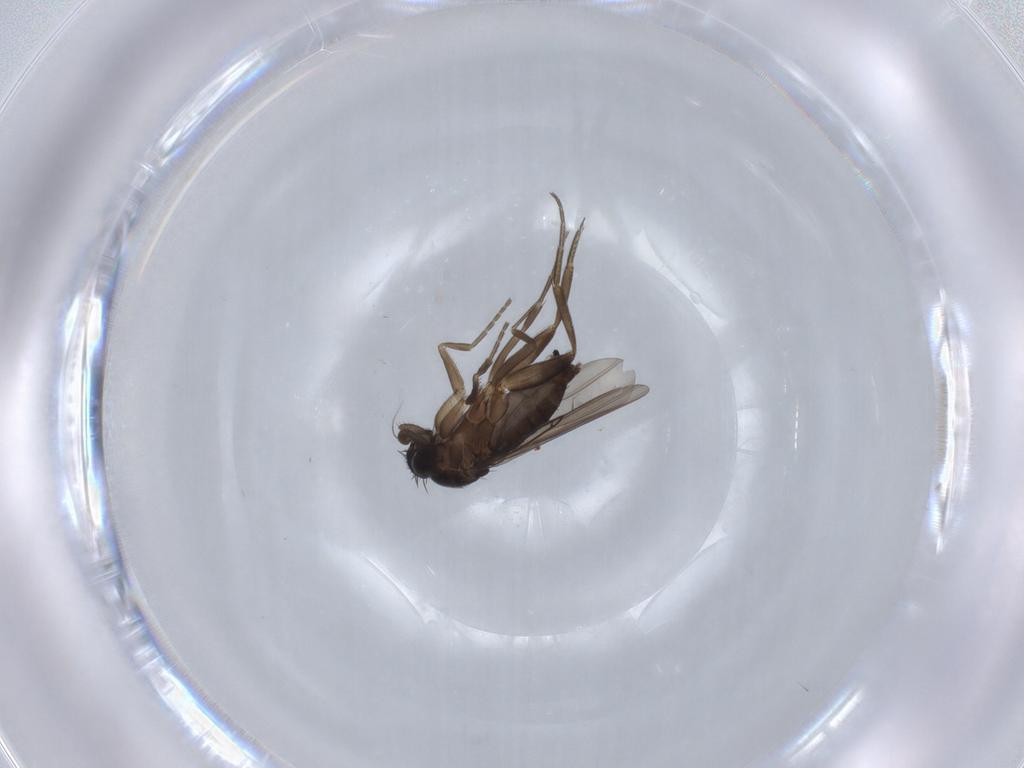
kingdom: Animalia
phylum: Arthropoda
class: Insecta
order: Diptera
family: Phoridae
